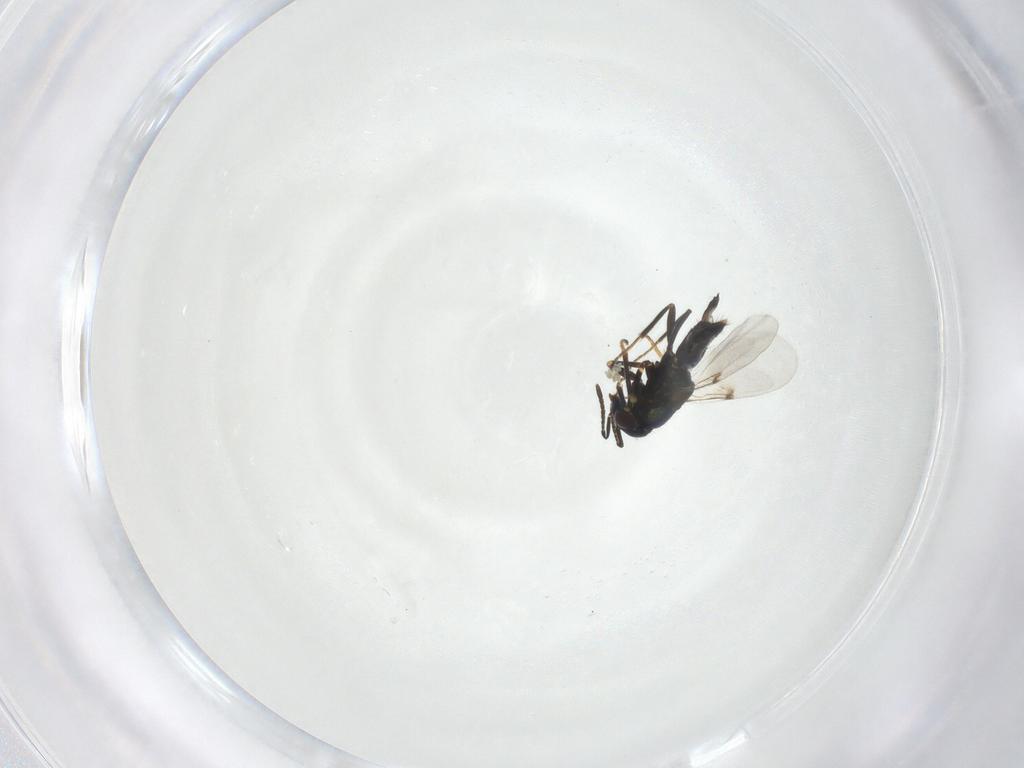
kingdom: Animalia
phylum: Arthropoda
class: Insecta
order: Hymenoptera
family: Encyrtidae
